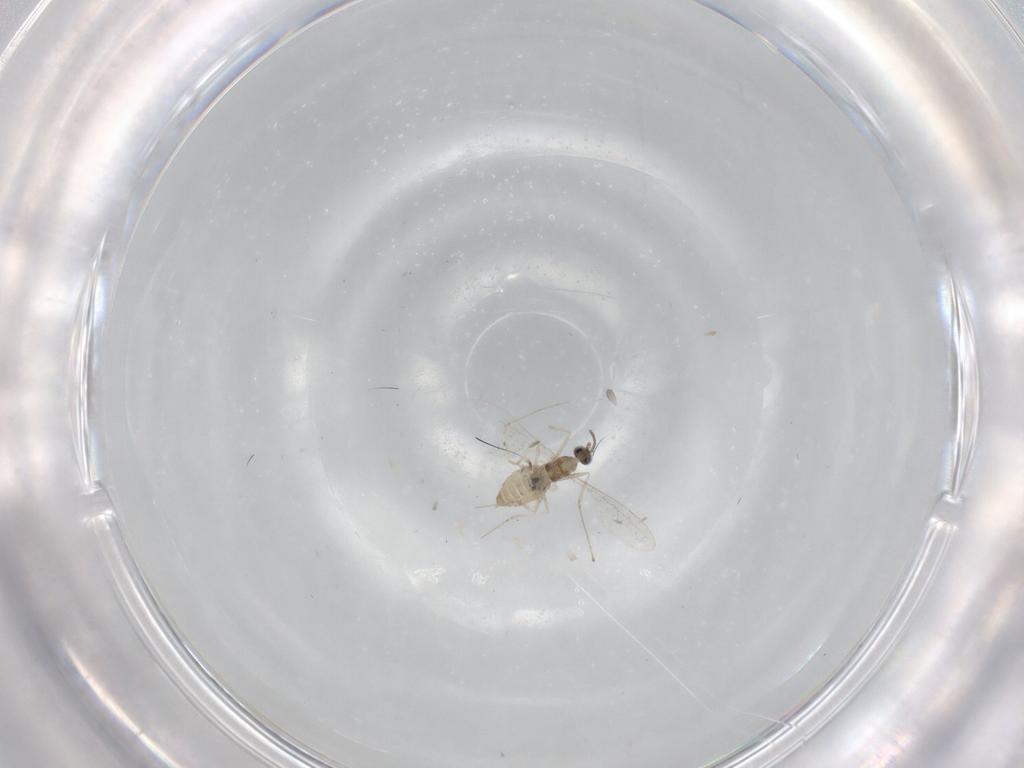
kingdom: Animalia
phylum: Arthropoda
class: Insecta
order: Diptera
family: Cecidomyiidae
